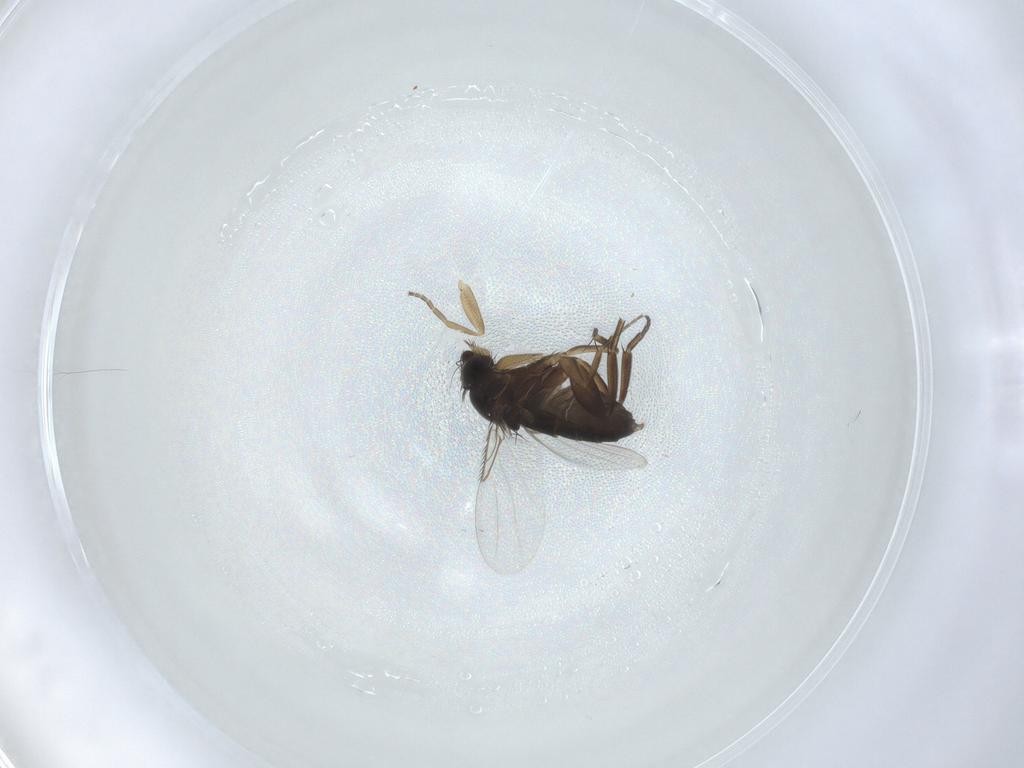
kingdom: Animalia
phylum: Arthropoda
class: Insecta
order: Diptera
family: Phoridae
